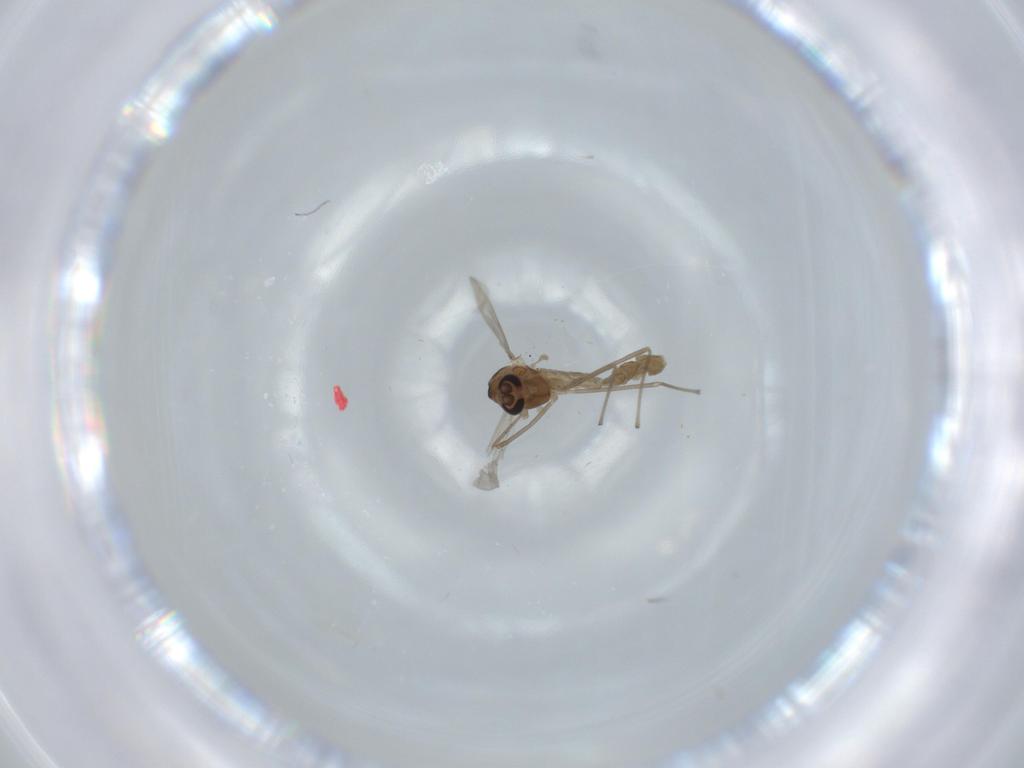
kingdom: Animalia
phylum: Arthropoda
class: Insecta
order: Diptera
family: Chironomidae
